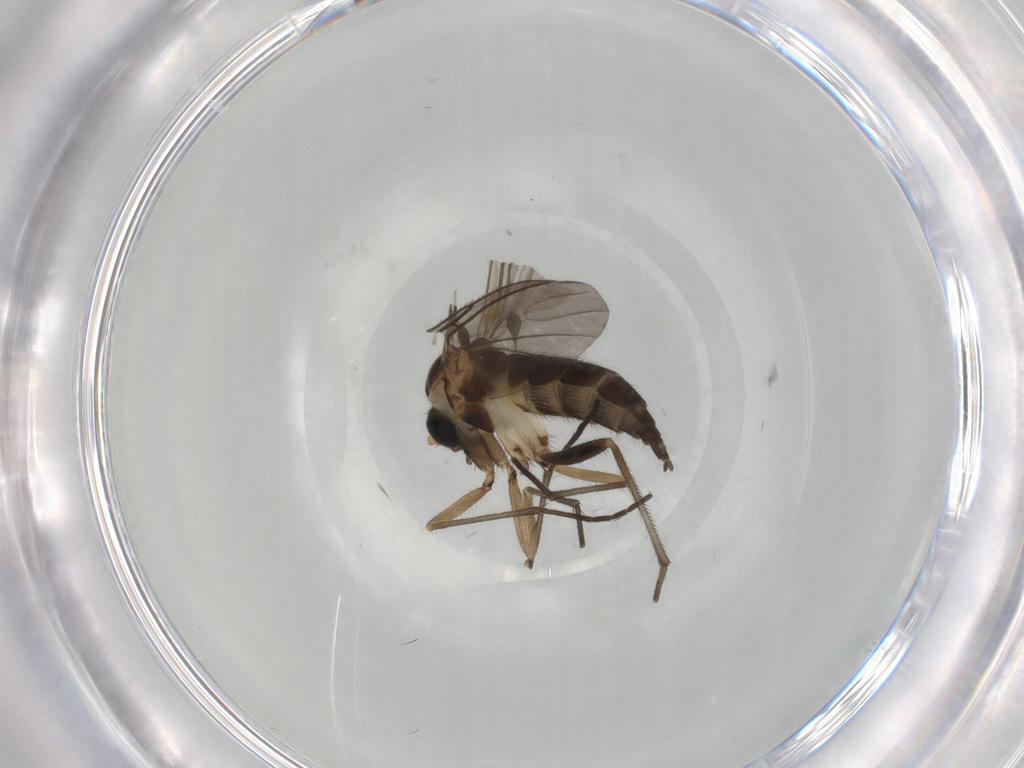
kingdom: Animalia
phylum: Arthropoda
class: Insecta
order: Diptera
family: Sciaridae
